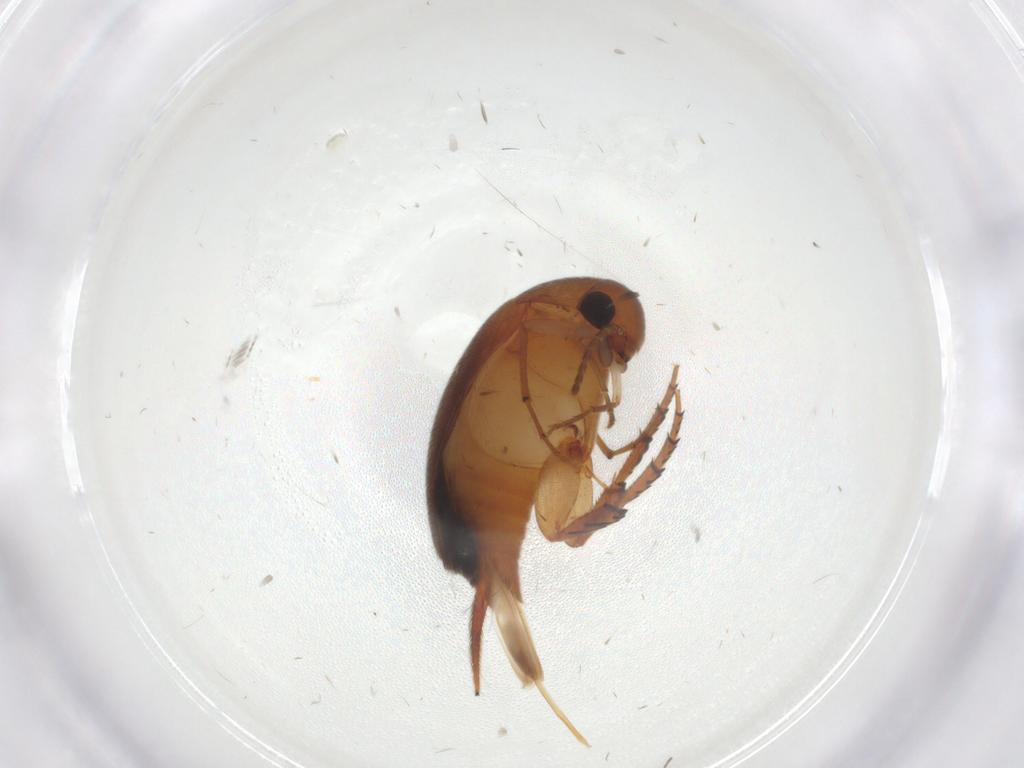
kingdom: Animalia
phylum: Arthropoda
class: Insecta
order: Coleoptera
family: Mordellidae
